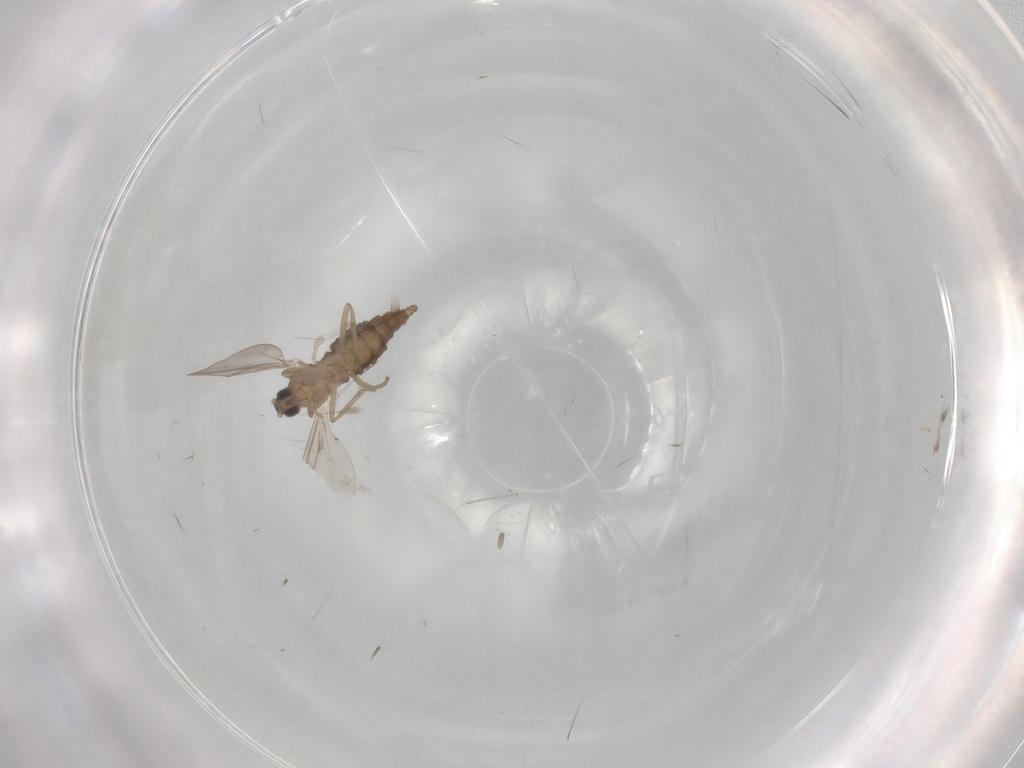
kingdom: Animalia
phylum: Arthropoda
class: Insecta
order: Diptera
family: Cecidomyiidae
